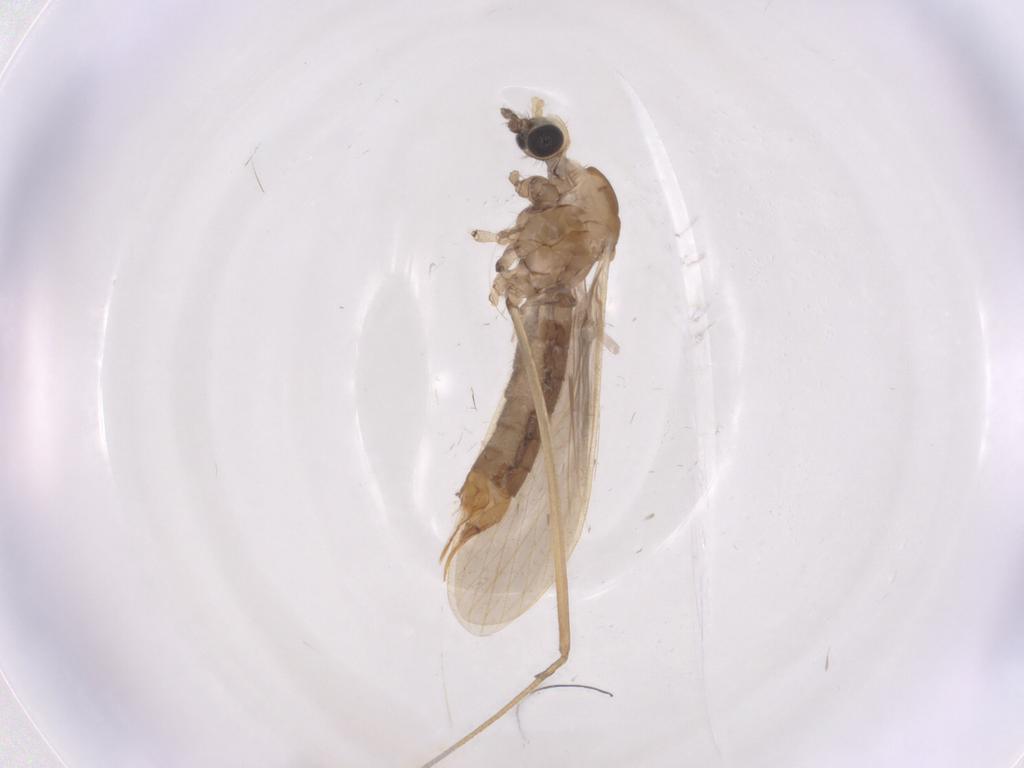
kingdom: Animalia
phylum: Arthropoda
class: Insecta
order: Diptera
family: Limoniidae
